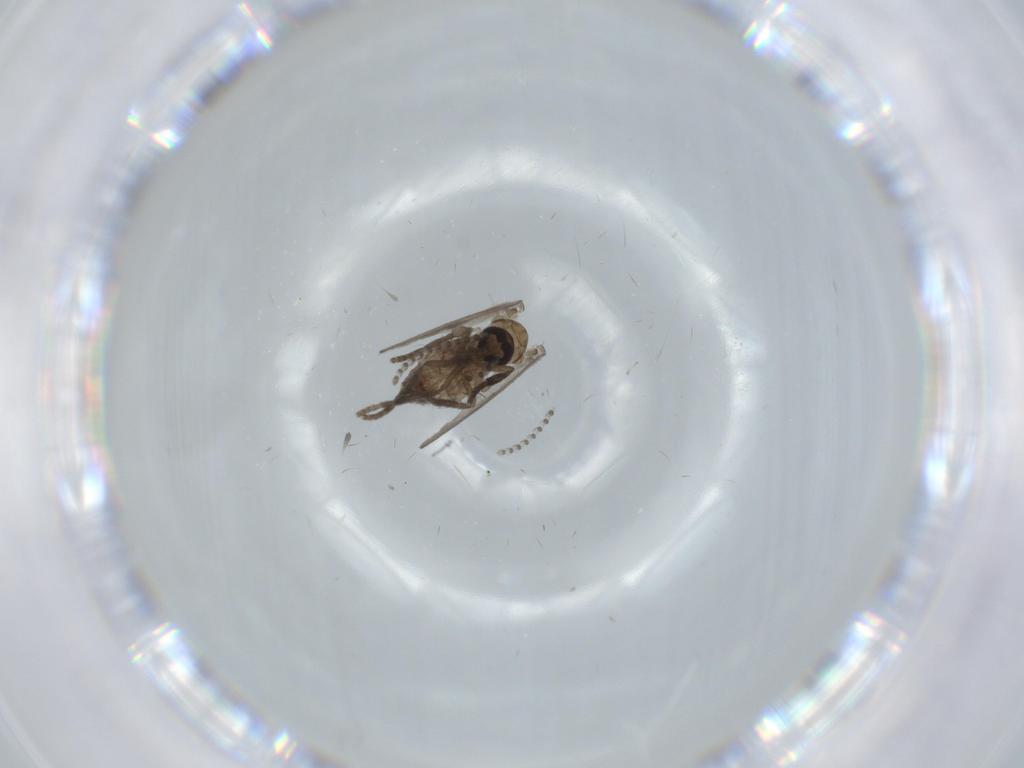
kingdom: Animalia
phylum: Arthropoda
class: Insecta
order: Diptera
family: Sciaridae
